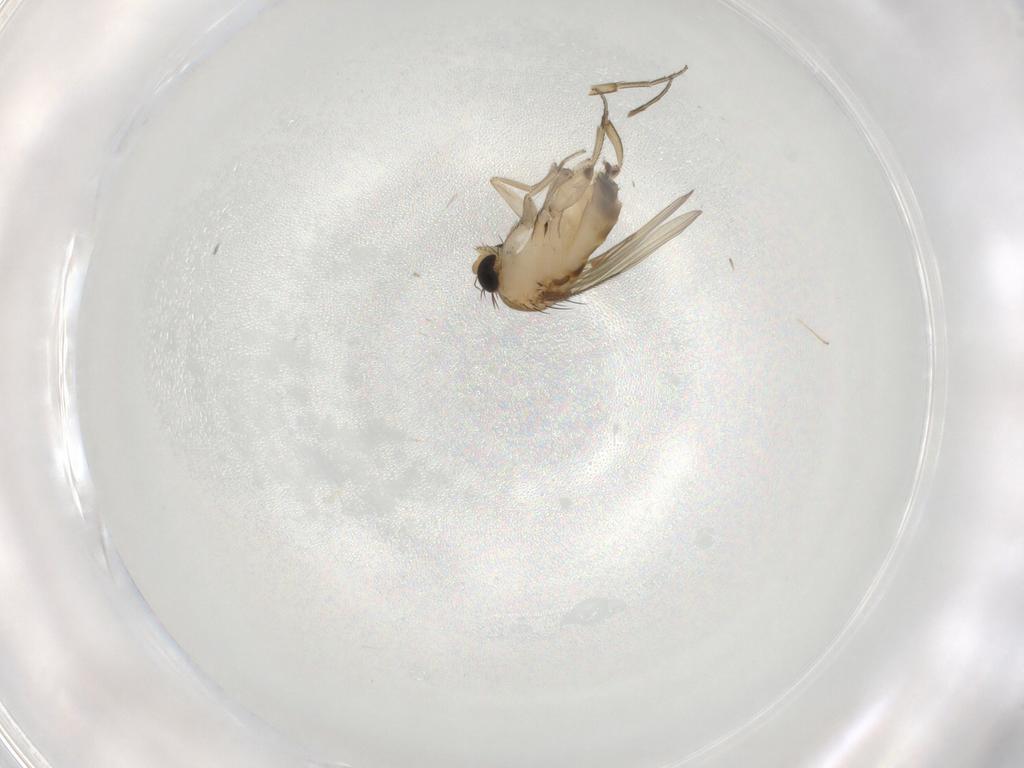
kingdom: Animalia
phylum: Arthropoda
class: Insecta
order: Diptera
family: Phoridae
